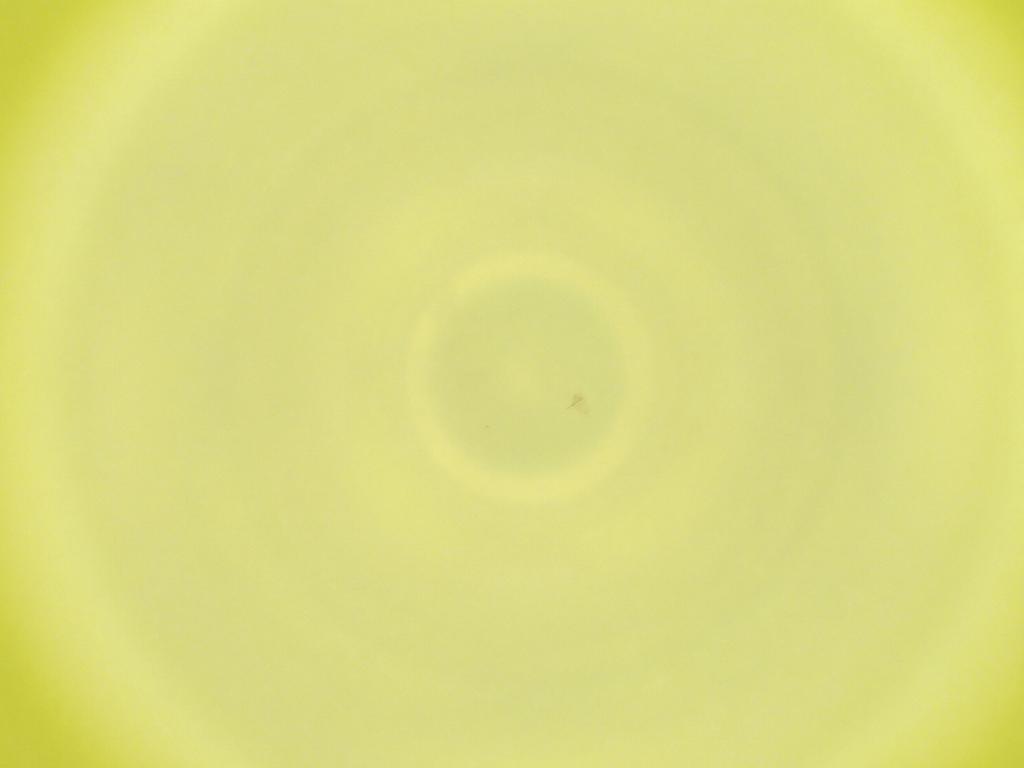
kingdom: Animalia
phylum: Arthropoda
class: Insecta
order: Diptera
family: Cecidomyiidae
